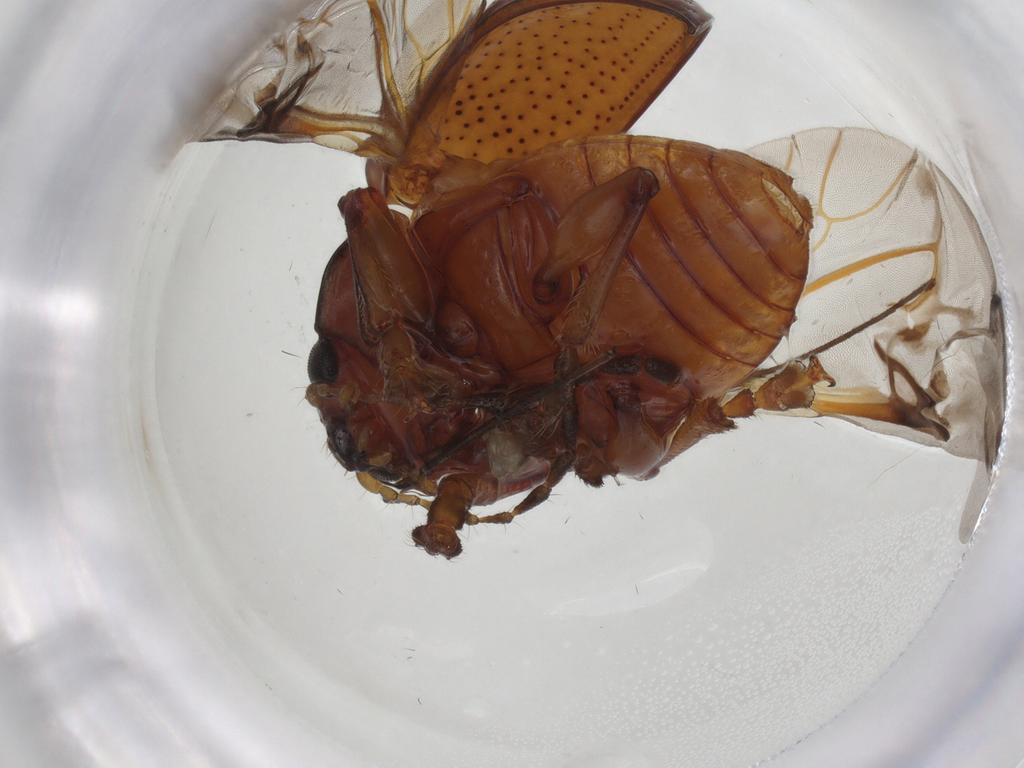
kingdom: Animalia
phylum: Arthropoda
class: Insecta
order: Coleoptera
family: Chrysomelidae
